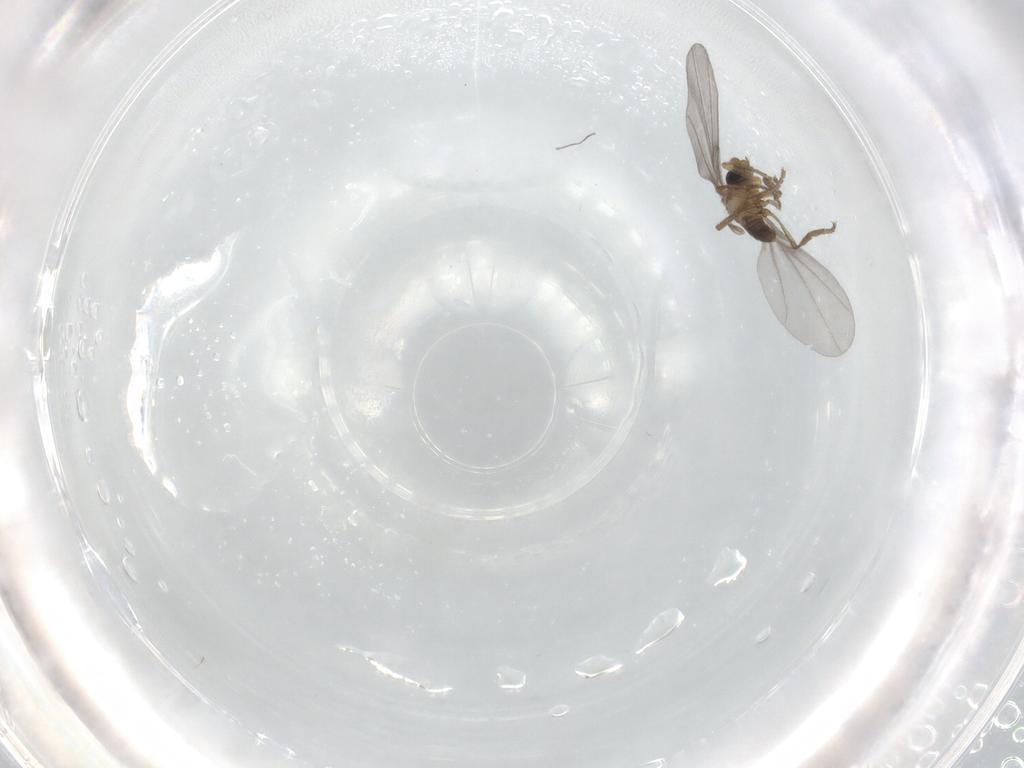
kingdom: Animalia
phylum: Arthropoda
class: Insecta
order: Diptera
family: Phoridae
